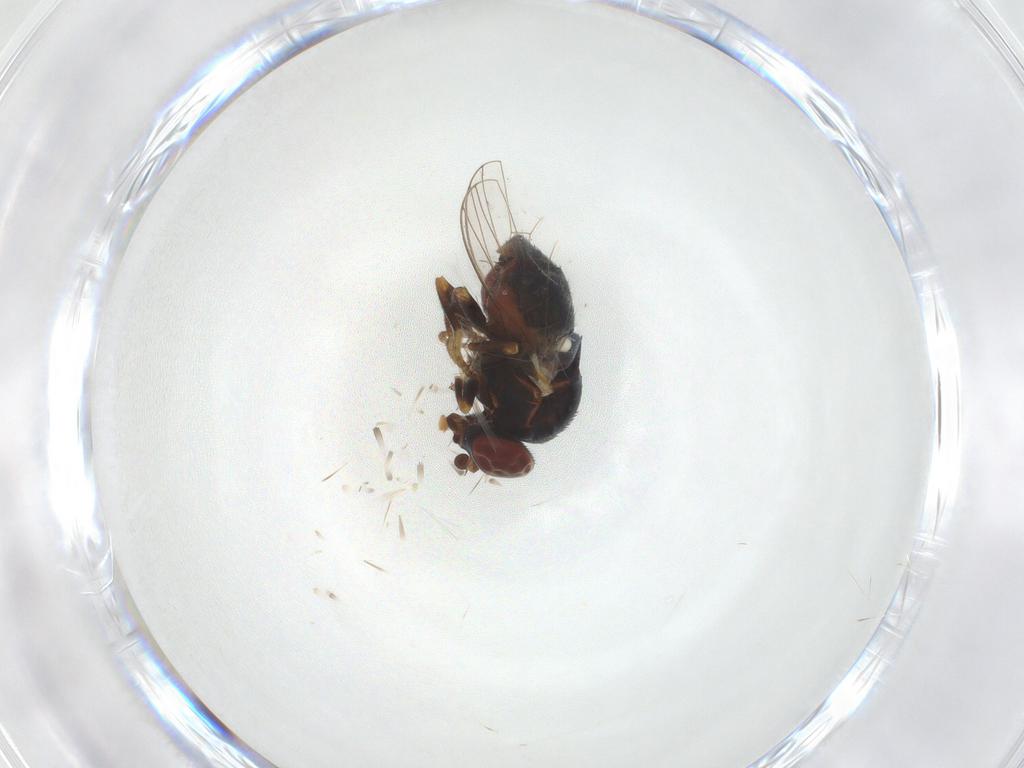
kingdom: Animalia
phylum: Arthropoda
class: Insecta
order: Diptera
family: Chamaemyiidae
